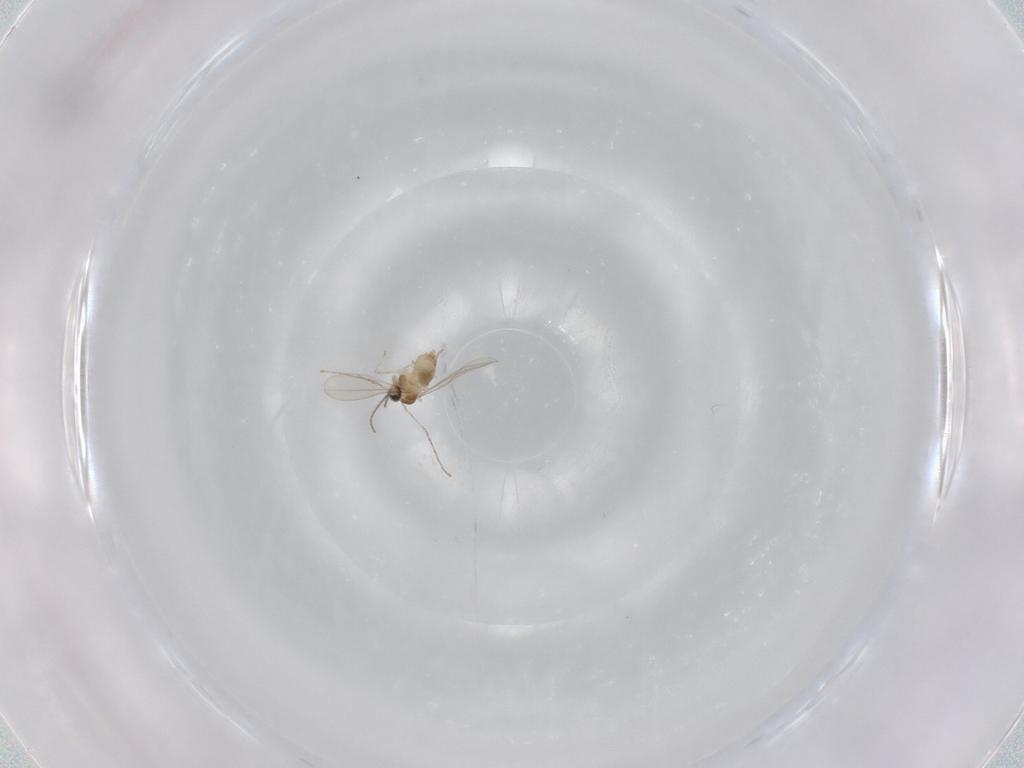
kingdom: Animalia
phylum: Arthropoda
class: Insecta
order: Diptera
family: Cecidomyiidae
